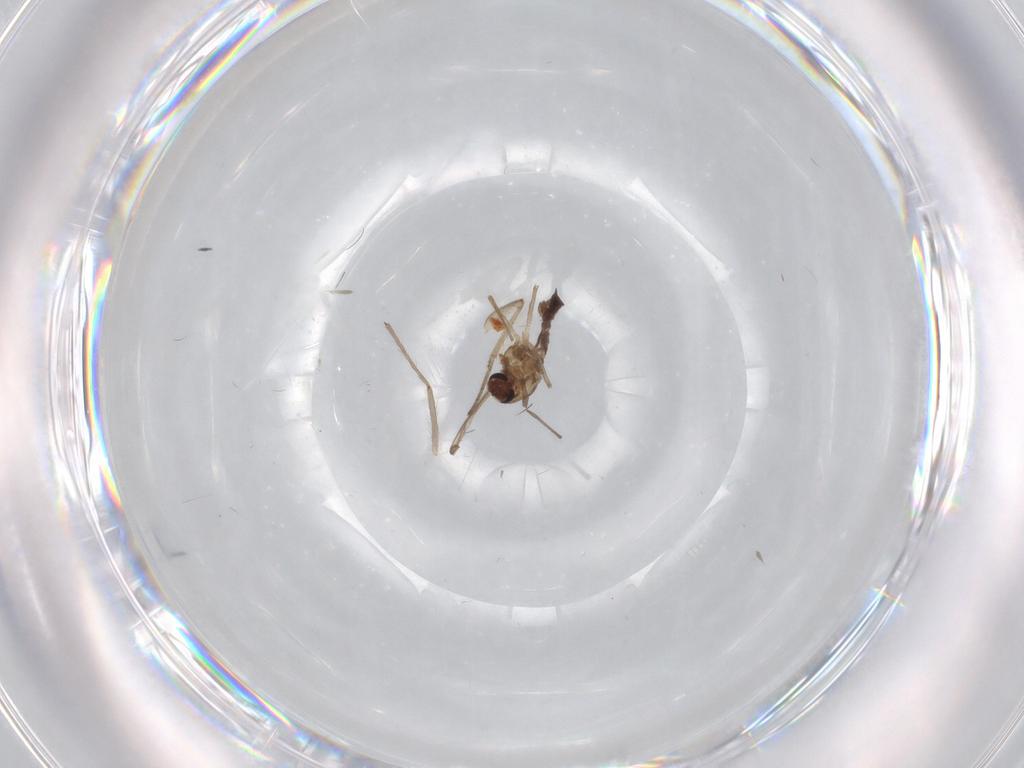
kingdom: Animalia
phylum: Arthropoda
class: Insecta
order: Diptera
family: Chironomidae
